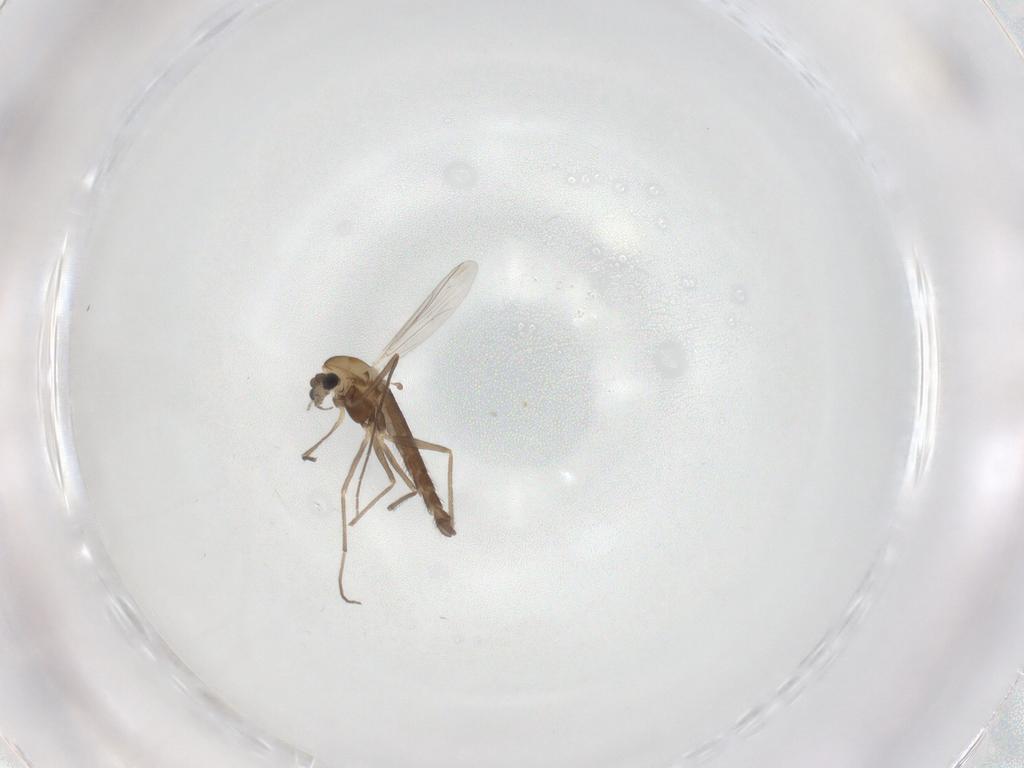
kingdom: Animalia
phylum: Arthropoda
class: Insecta
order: Diptera
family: Chironomidae
